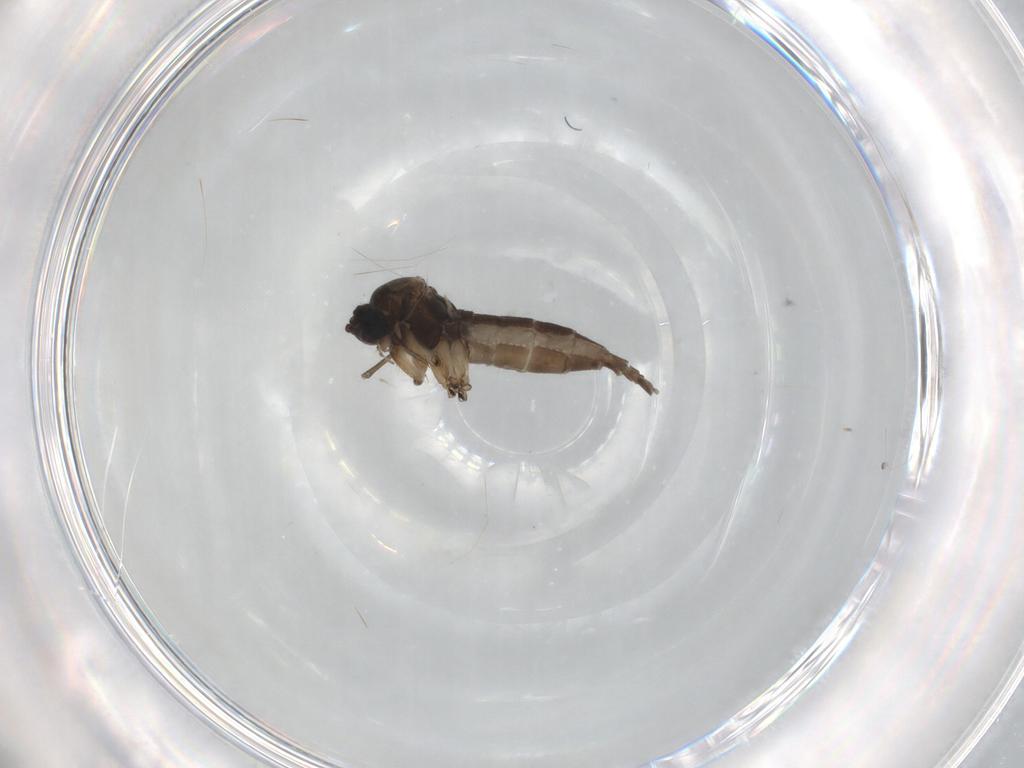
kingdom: Animalia
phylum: Arthropoda
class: Insecta
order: Diptera
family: Sciaridae
